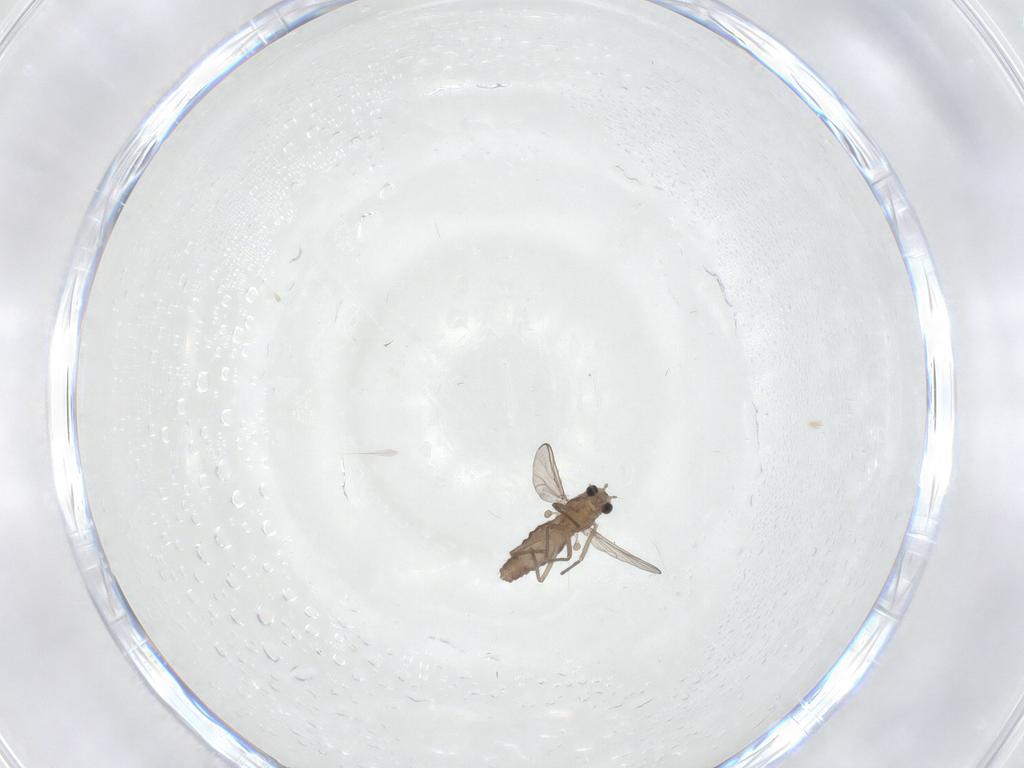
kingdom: Animalia
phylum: Arthropoda
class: Insecta
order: Diptera
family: Chironomidae
